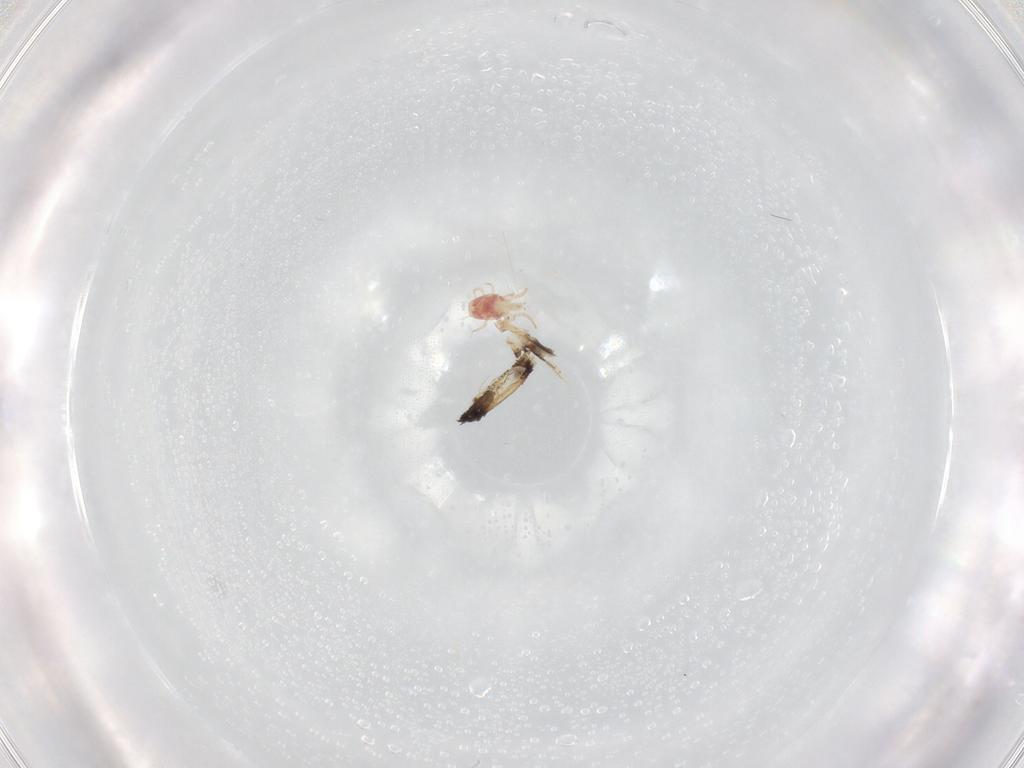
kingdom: Animalia
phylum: Arthropoda
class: Arachnida
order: Mesostigmata
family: Phytoseiidae
